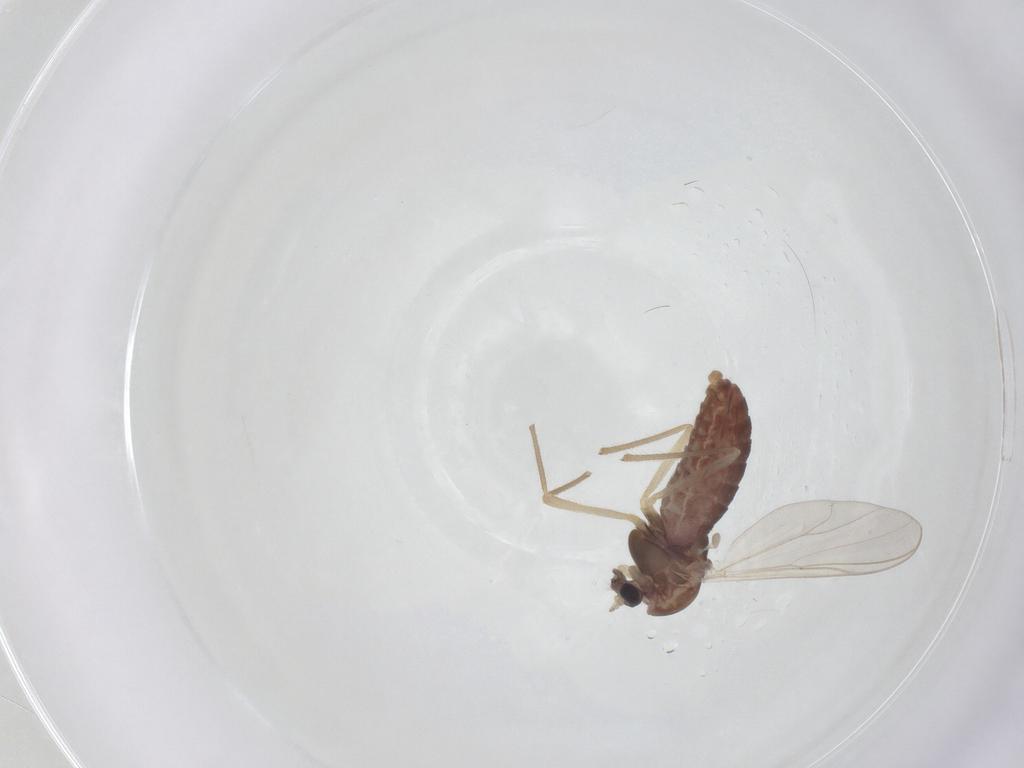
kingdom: Animalia
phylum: Arthropoda
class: Insecta
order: Diptera
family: Chironomidae
